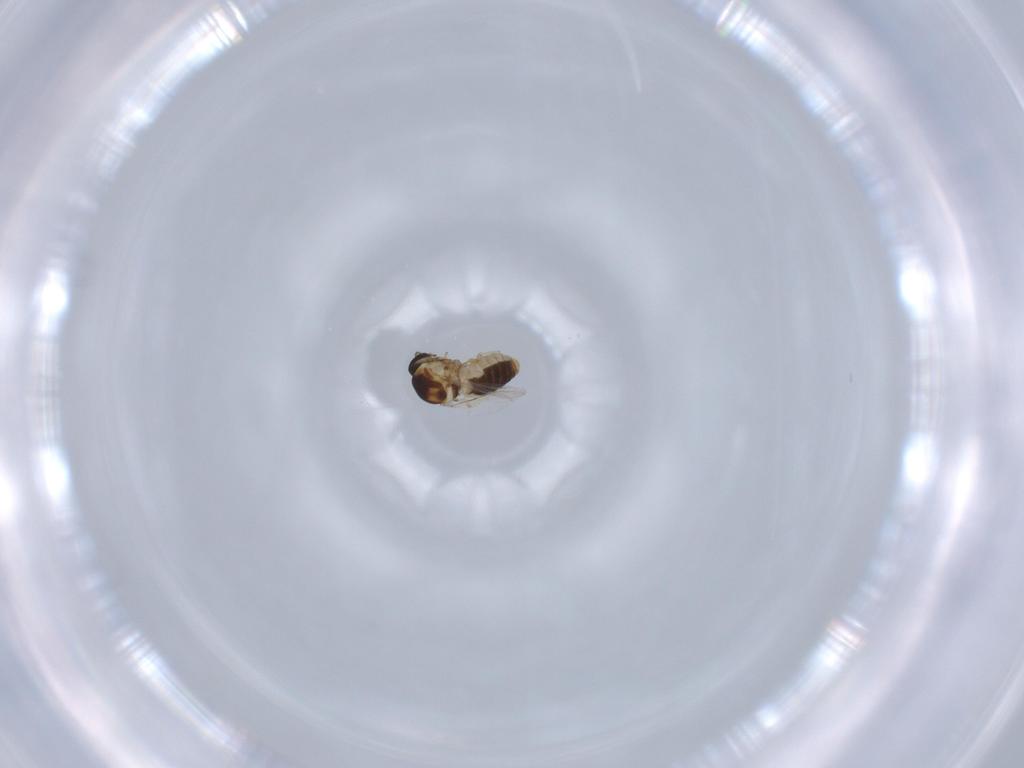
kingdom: Animalia
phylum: Arthropoda
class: Insecta
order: Diptera
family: Ceratopogonidae
